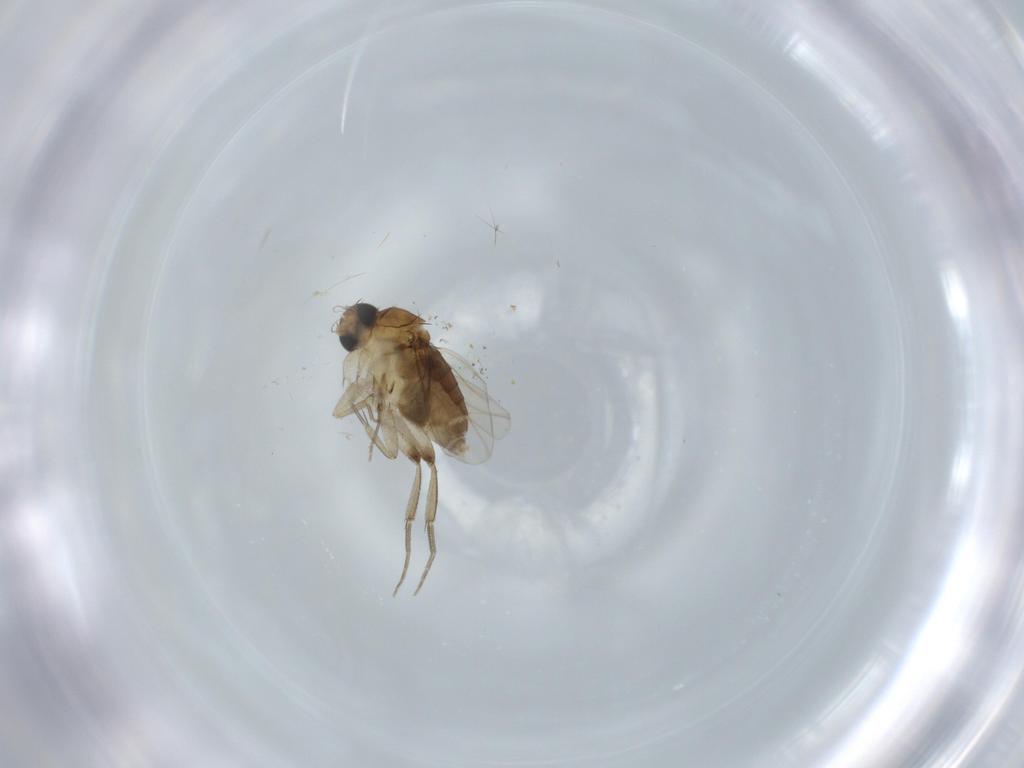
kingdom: Animalia
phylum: Arthropoda
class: Insecta
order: Diptera
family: Phoridae
